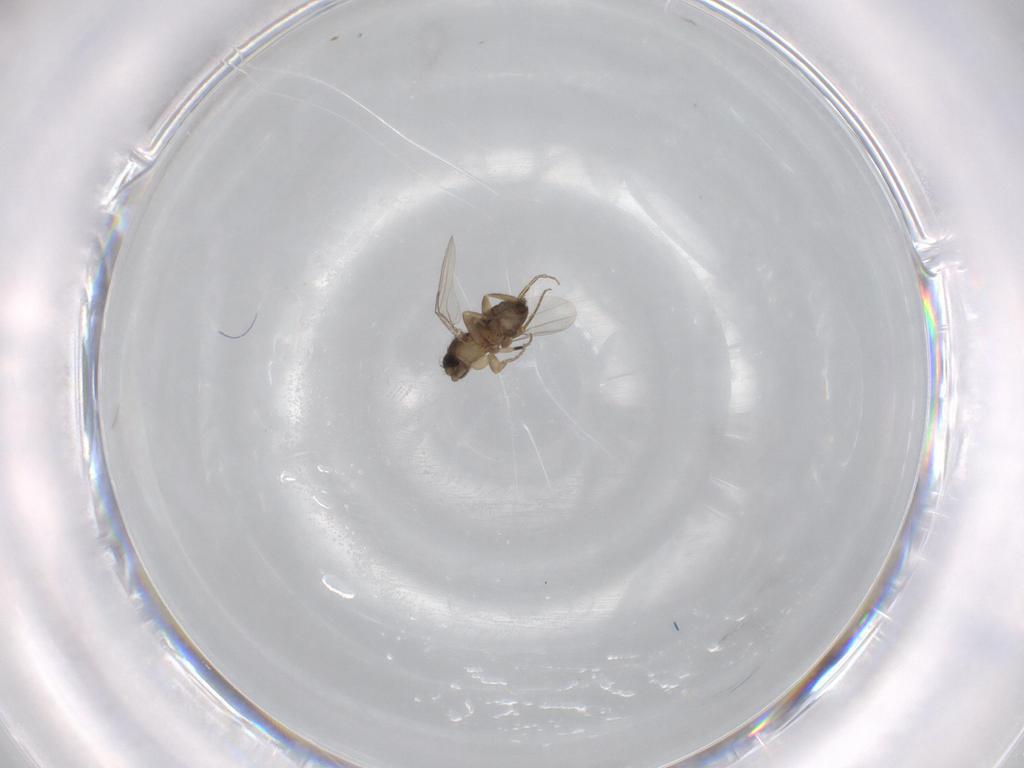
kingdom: Animalia
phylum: Arthropoda
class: Insecta
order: Diptera
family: Phoridae
